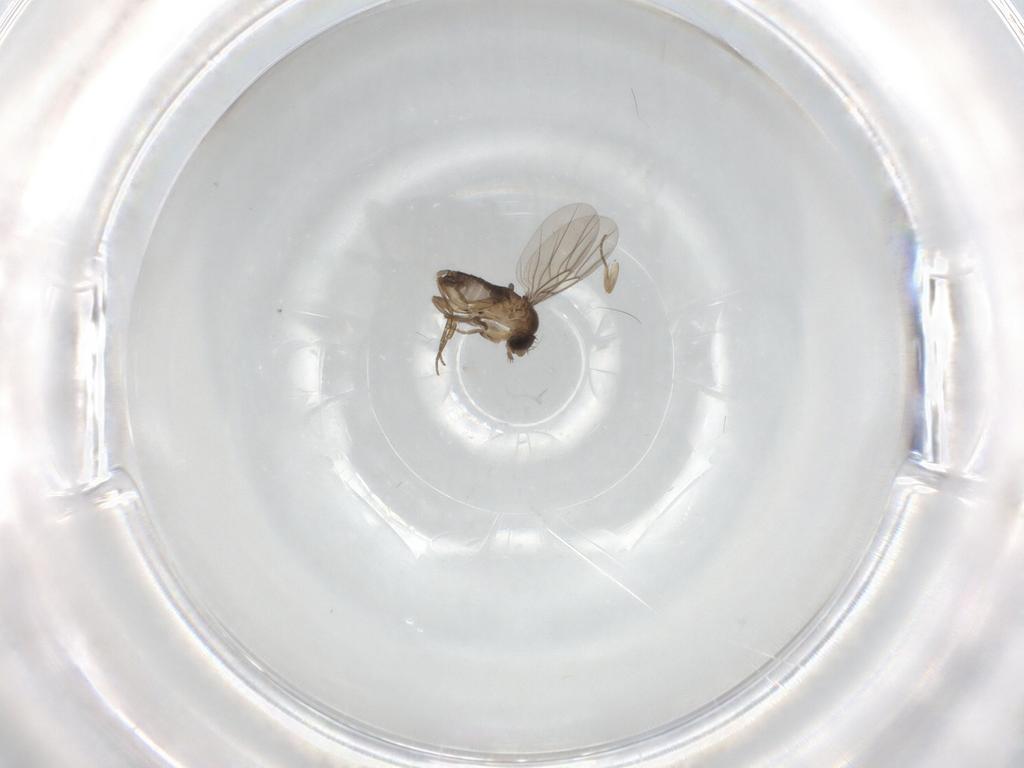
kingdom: Animalia
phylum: Arthropoda
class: Insecta
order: Diptera
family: Phoridae
